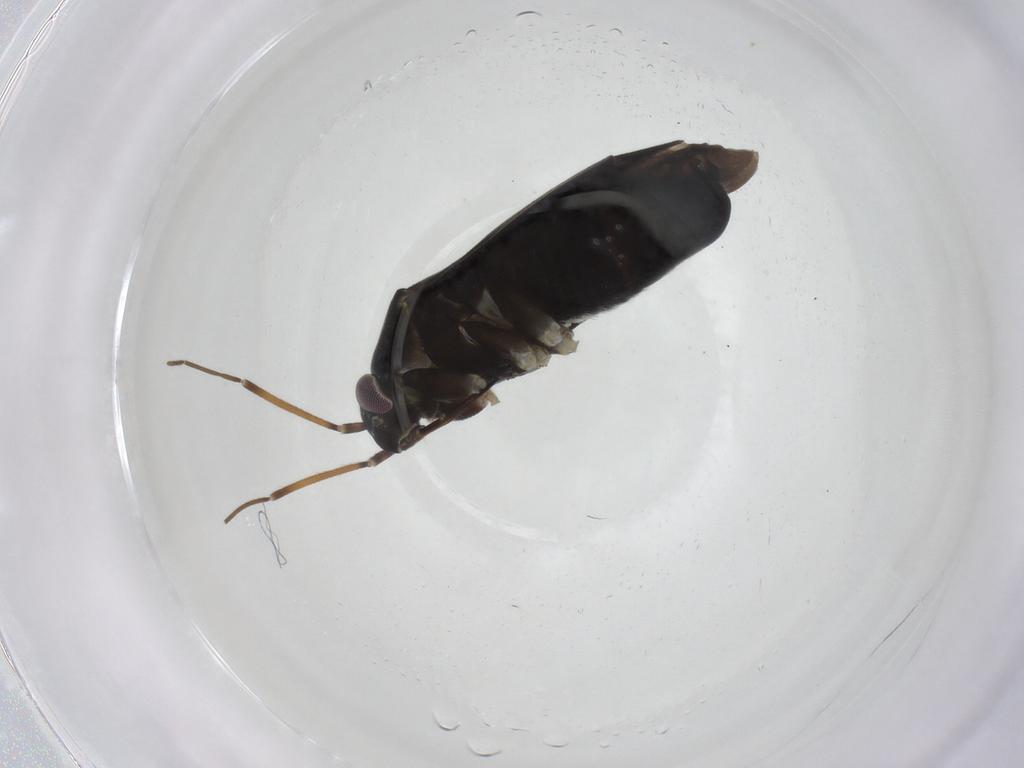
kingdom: Animalia
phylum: Arthropoda
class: Insecta
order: Hemiptera
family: Miridae
